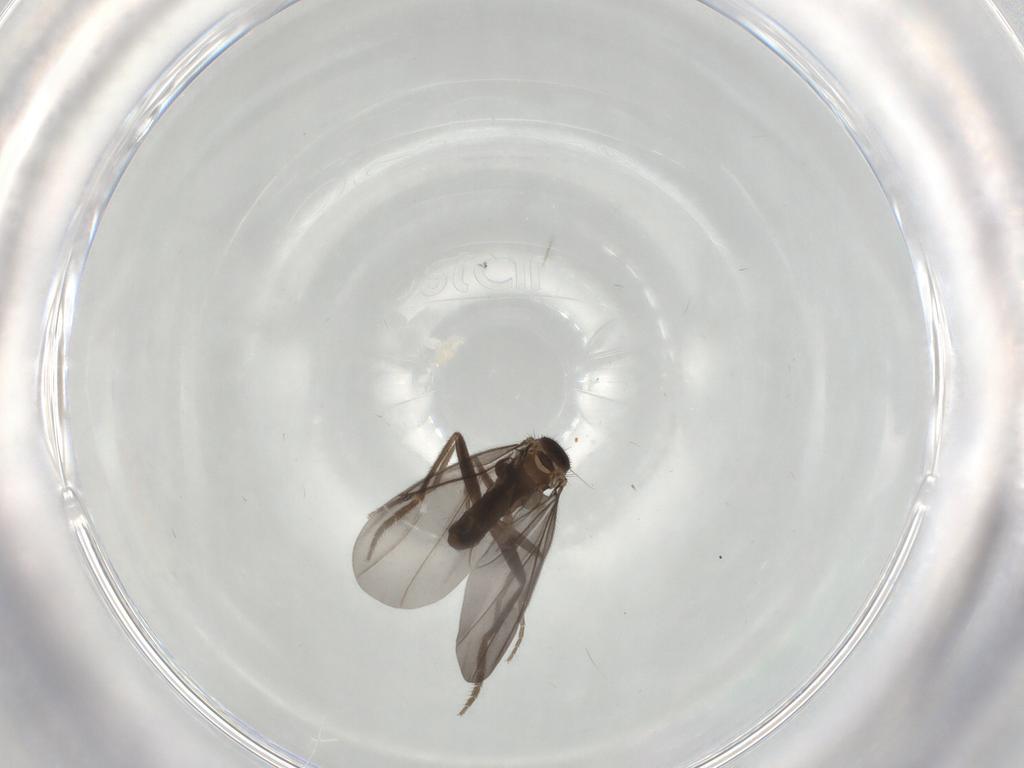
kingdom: Animalia
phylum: Arthropoda
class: Insecta
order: Diptera
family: Phoridae
